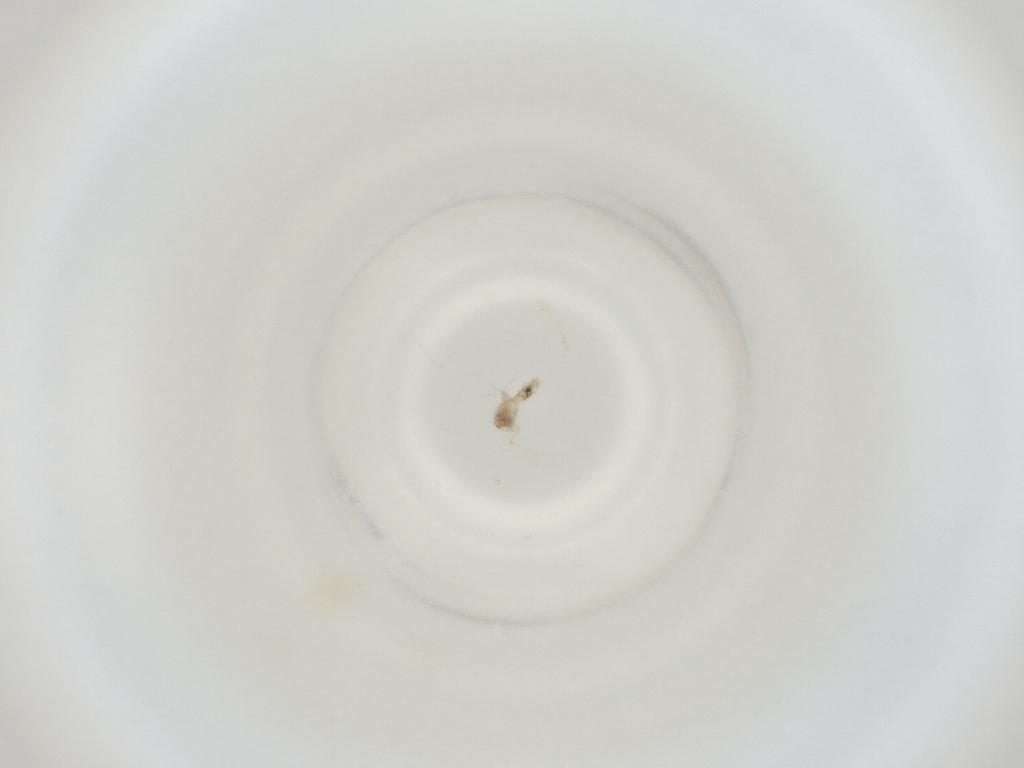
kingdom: Animalia
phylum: Arthropoda
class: Insecta
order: Diptera
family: Cecidomyiidae
